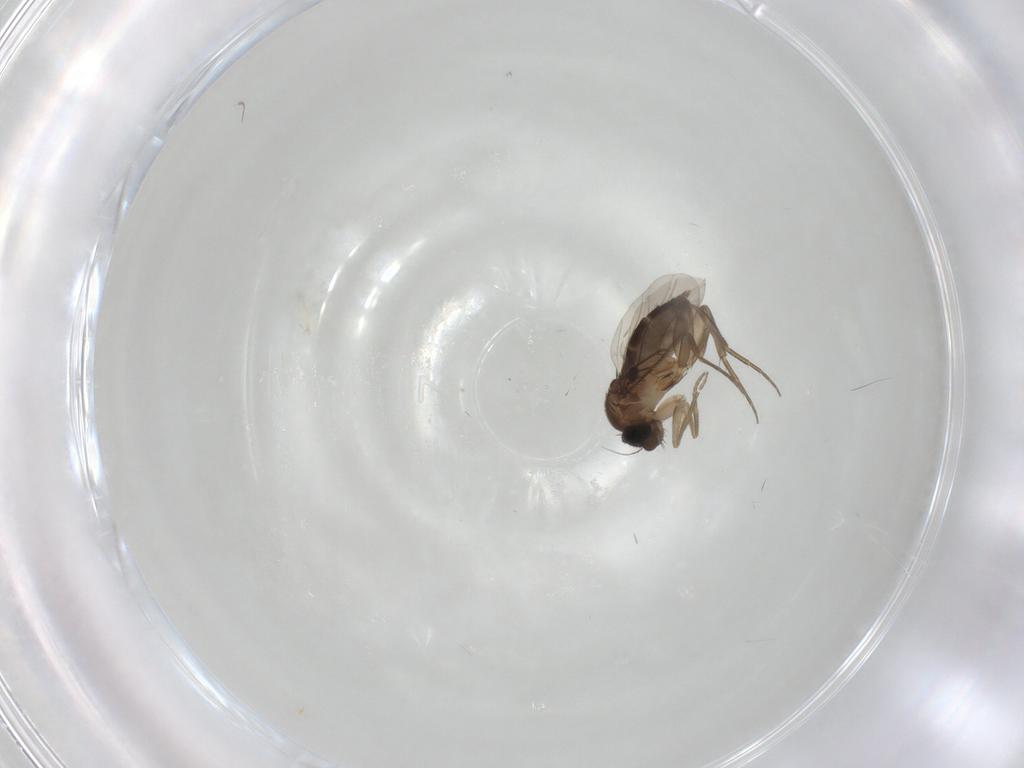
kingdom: Animalia
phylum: Arthropoda
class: Insecta
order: Diptera
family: Phoridae
